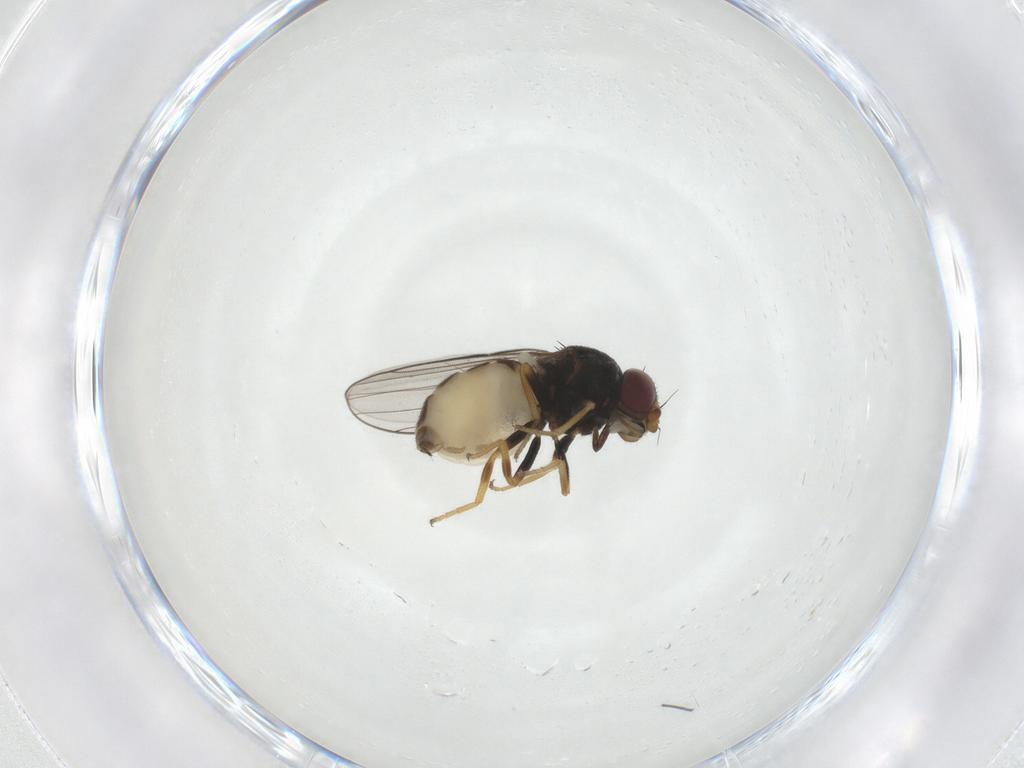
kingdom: Animalia
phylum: Arthropoda
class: Insecta
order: Diptera
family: Chloropidae
